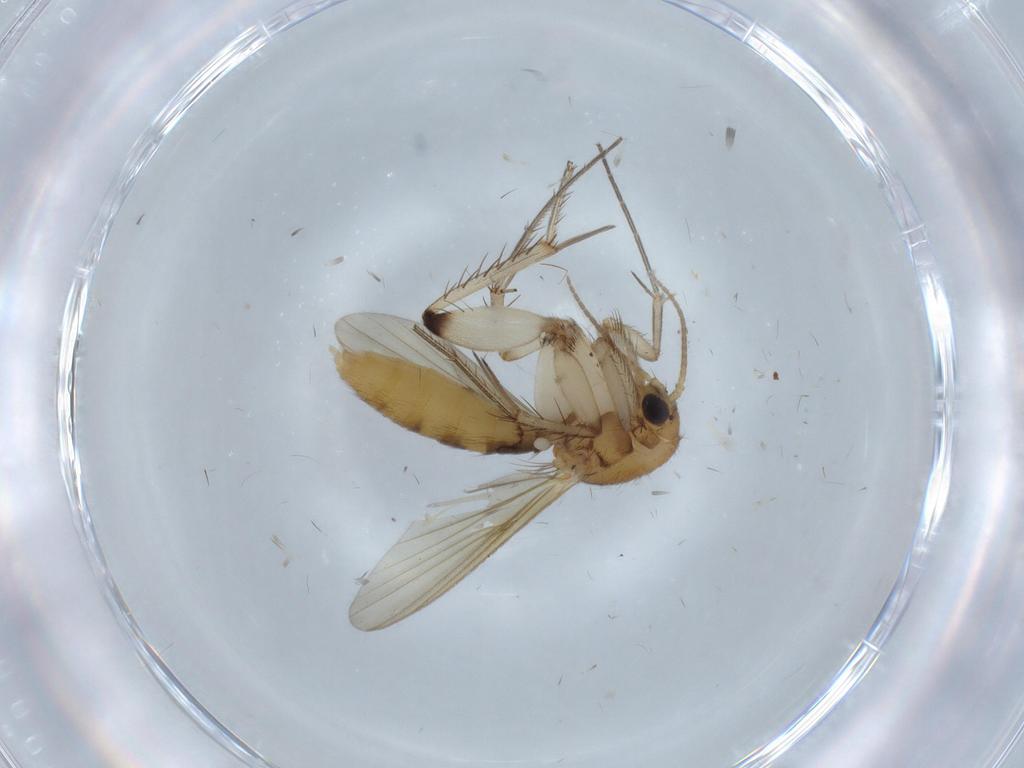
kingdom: Animalia
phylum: Arthropoda
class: Insecta
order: Diptera
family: Mycetophilidae
